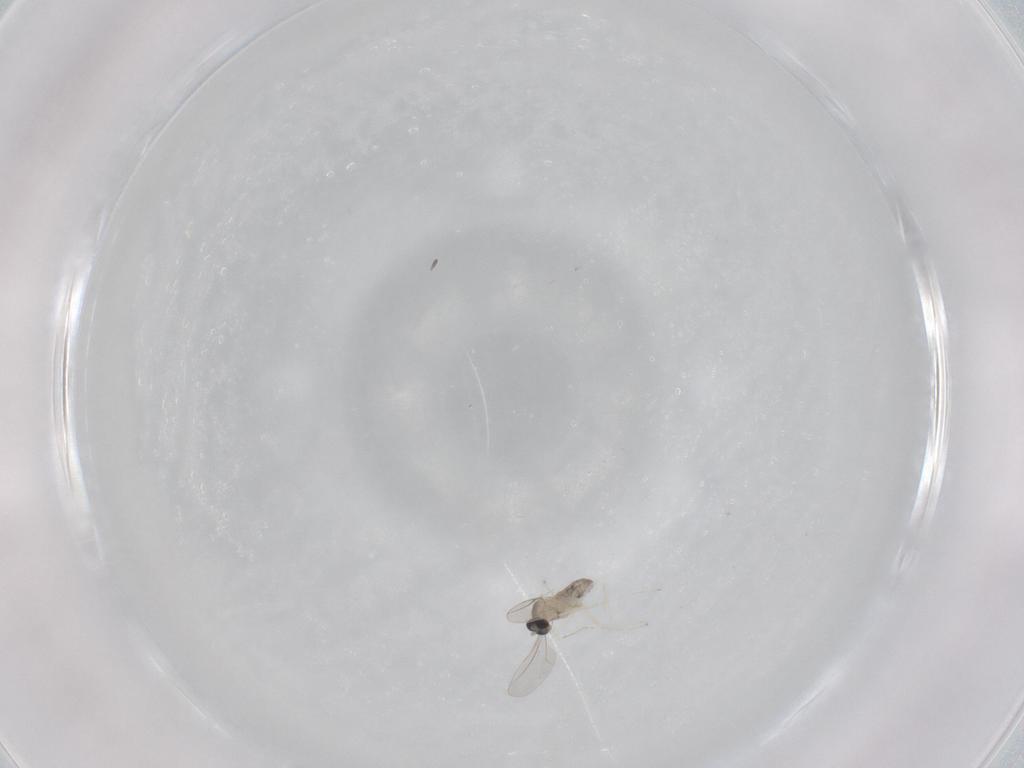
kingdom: Animalia
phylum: Arthropoda
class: Insecta
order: Diptera
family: Cecidomyiidae
